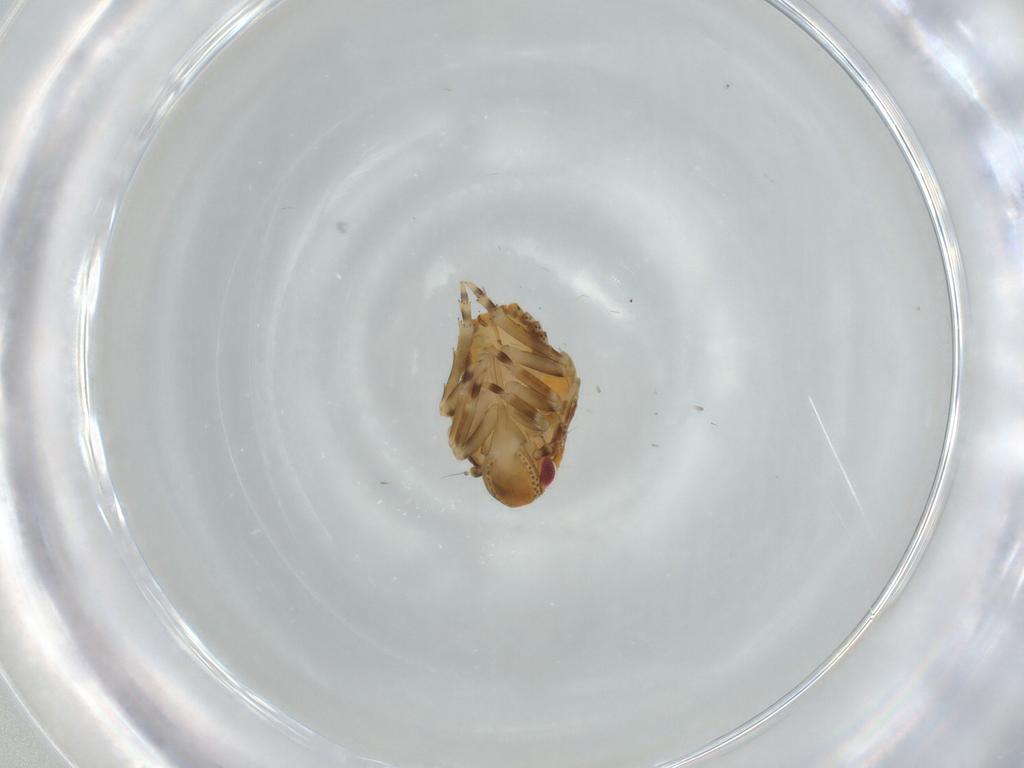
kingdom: Animalia
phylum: Arthropoda
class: Insecta
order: Hemiptera
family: Flatidae
